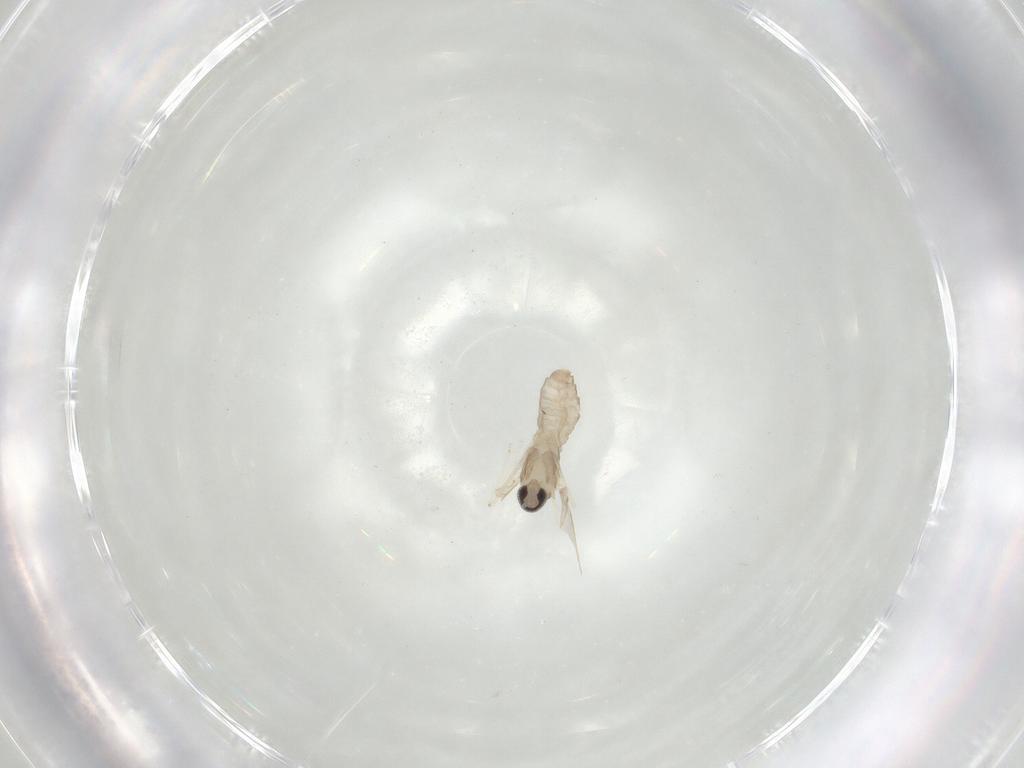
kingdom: Animalia
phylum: Arthropoda
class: Insecta
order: Diptera
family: Cecidomyiidae
